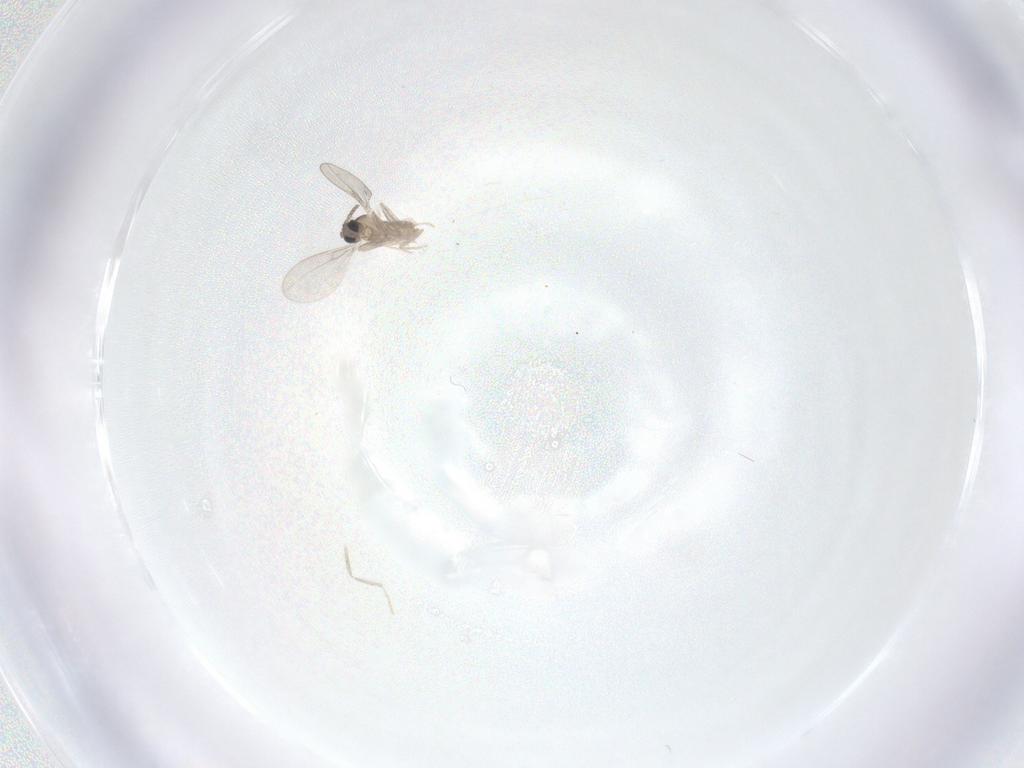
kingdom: Animalia
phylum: Arthropoda
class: Insecta
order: Diptera
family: Cecidomyiidae
